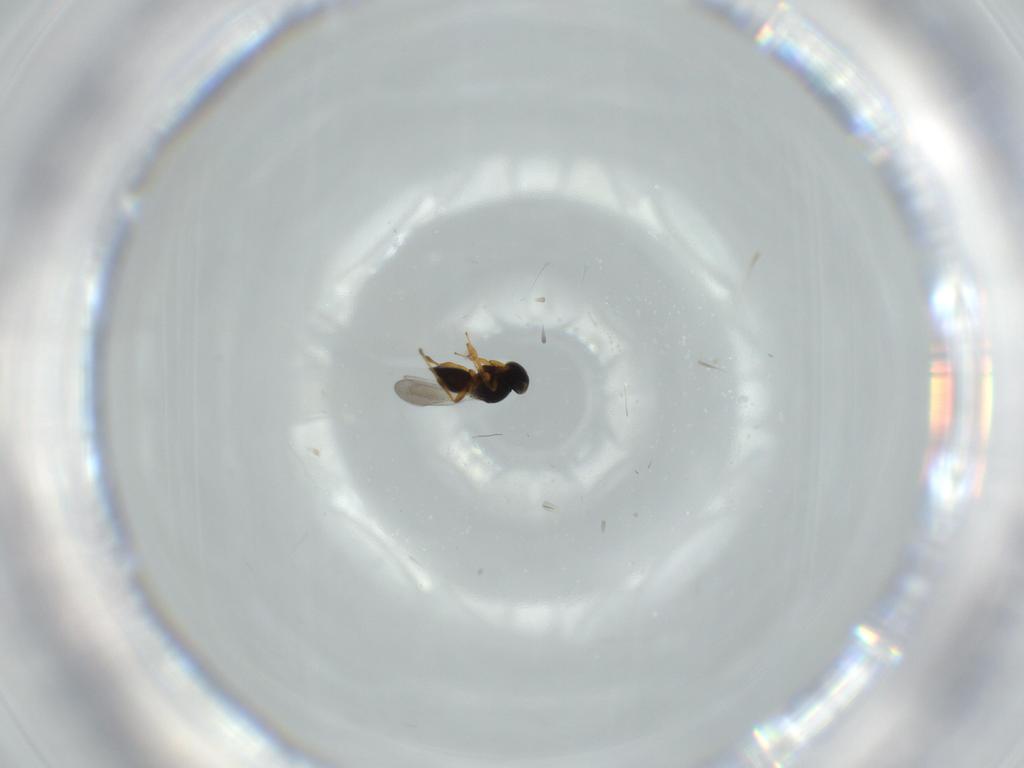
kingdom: Animalia
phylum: Arthropoda
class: Insecta
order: Hymenoptera
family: Platygastridae
